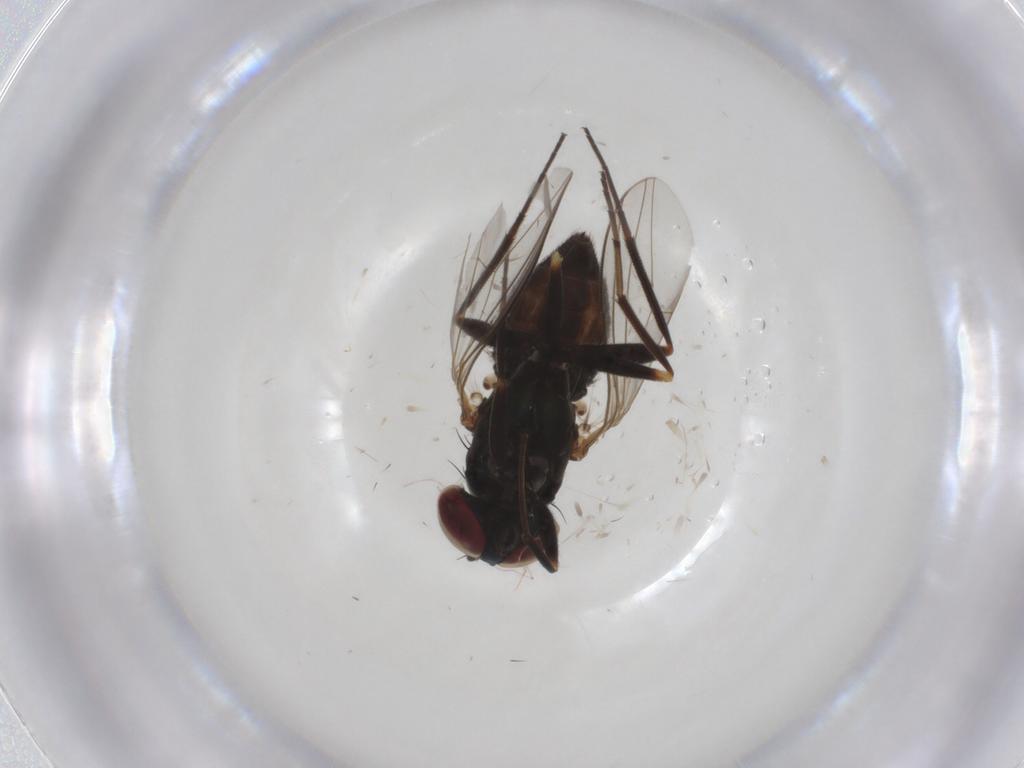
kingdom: Animalia
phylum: Arthropoda
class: Insecta
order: Diptera
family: Dolichopodidae
